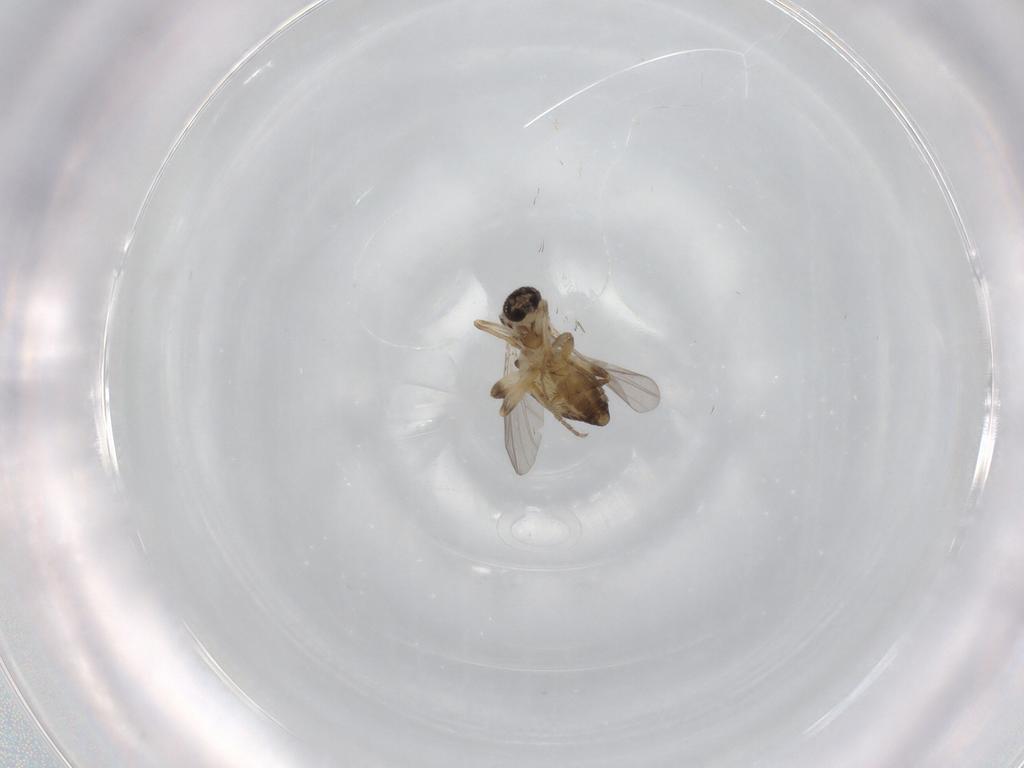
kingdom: Animalia
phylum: Arthropoda
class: Insecta
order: Diptera
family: Ceratopogonidae
